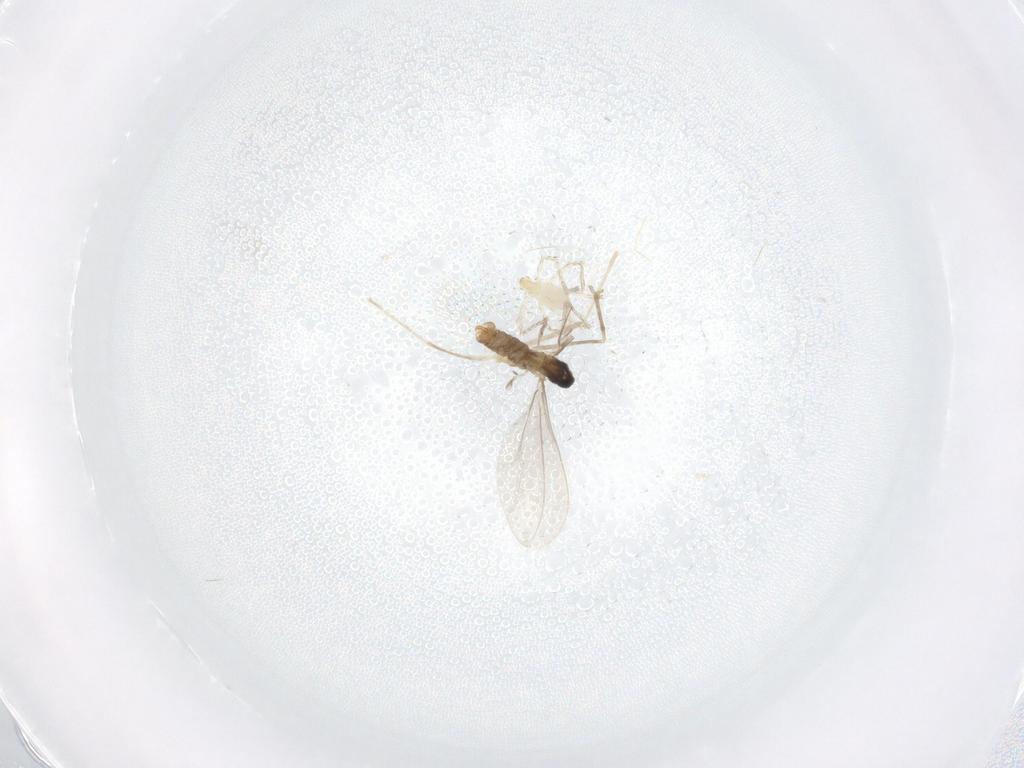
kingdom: Animalia
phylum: Arthropoda
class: Insecta
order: Diptera
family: Cecidomyiidae
